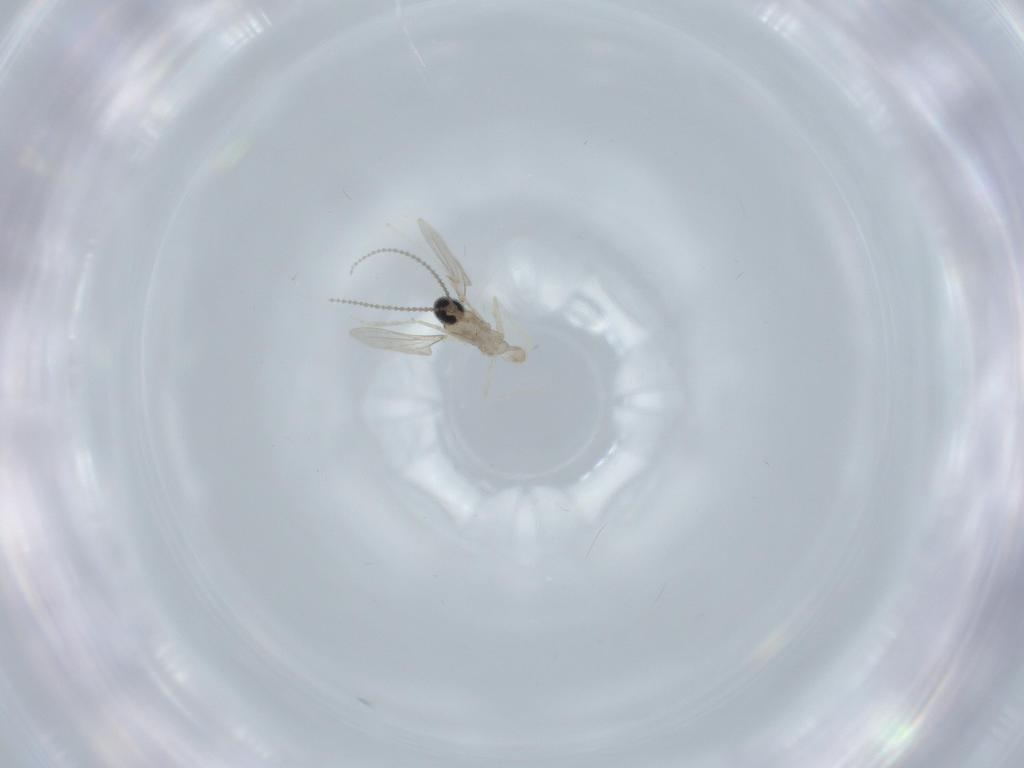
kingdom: Animalia
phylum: Arthropoda
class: Insecta
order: Diptera
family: Cecidomyiidae
